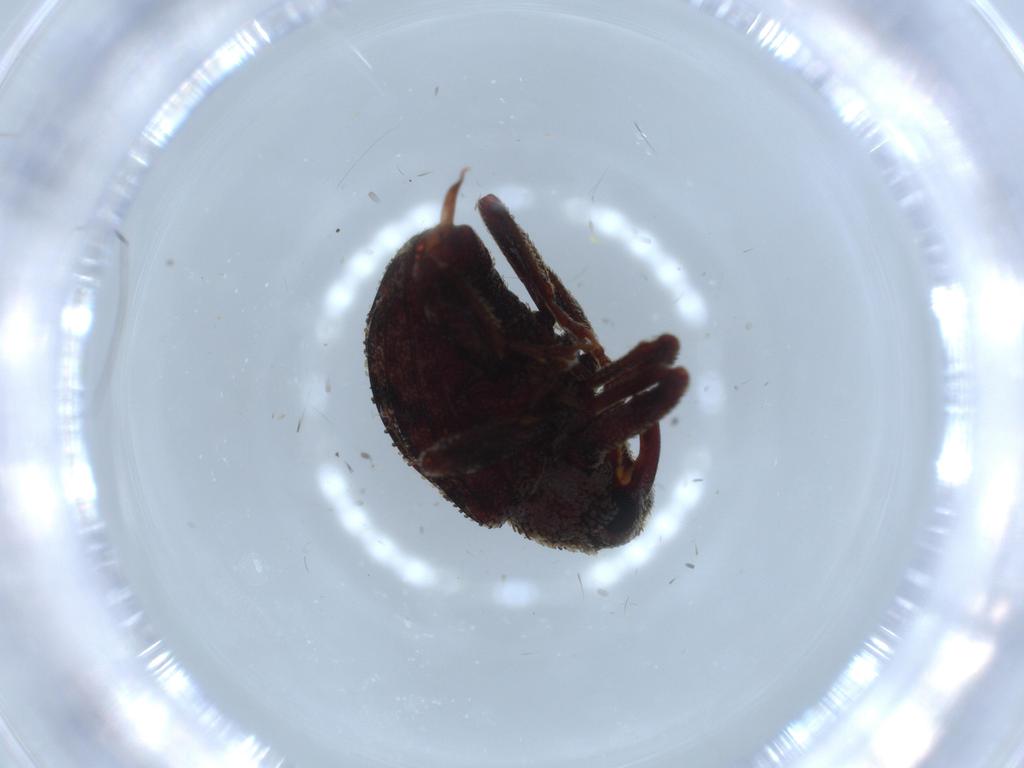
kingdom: Animalia
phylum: Arthropoda
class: Insecta
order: Coleoptera
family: Curculionidae
